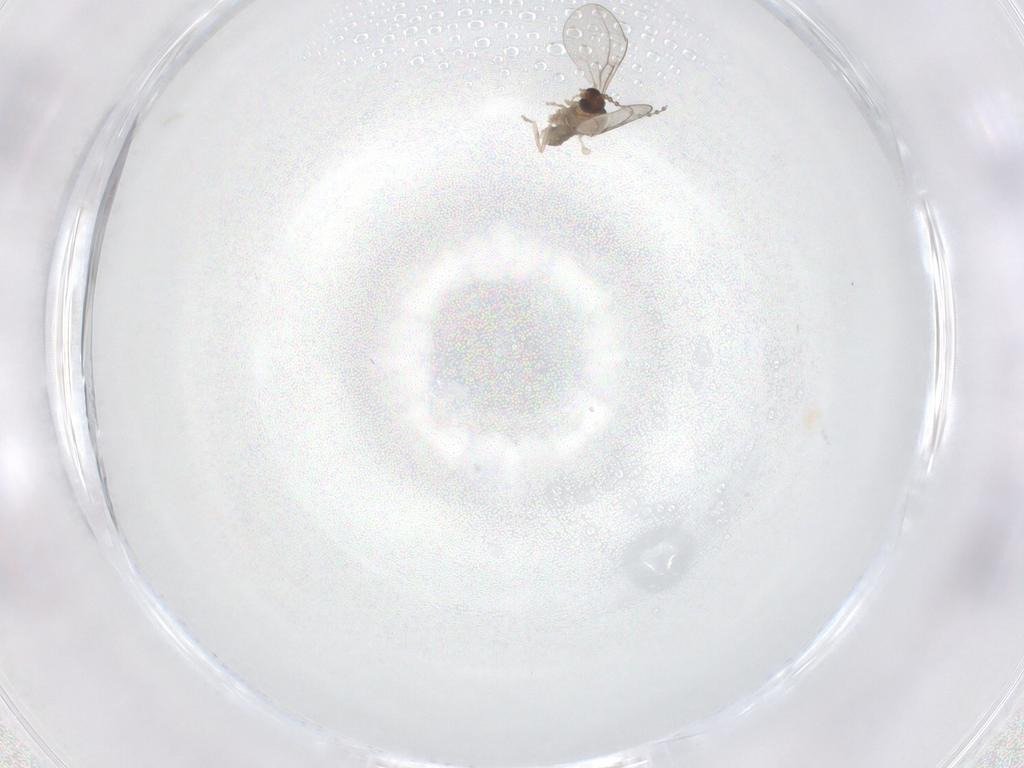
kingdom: Animalia
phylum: Arthropoda
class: Insecta
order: Diptera
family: Cecidomyiidae
